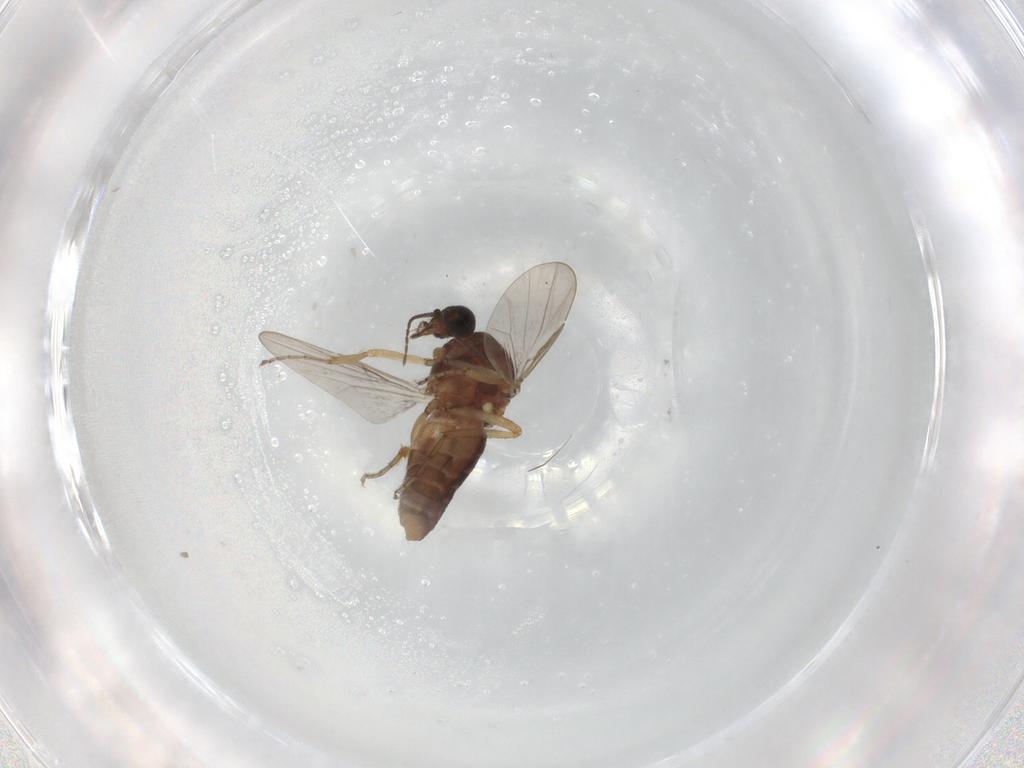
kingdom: Animalia
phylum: Arthropoda
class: Insecta
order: Diptera
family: Ceratopogonidae
